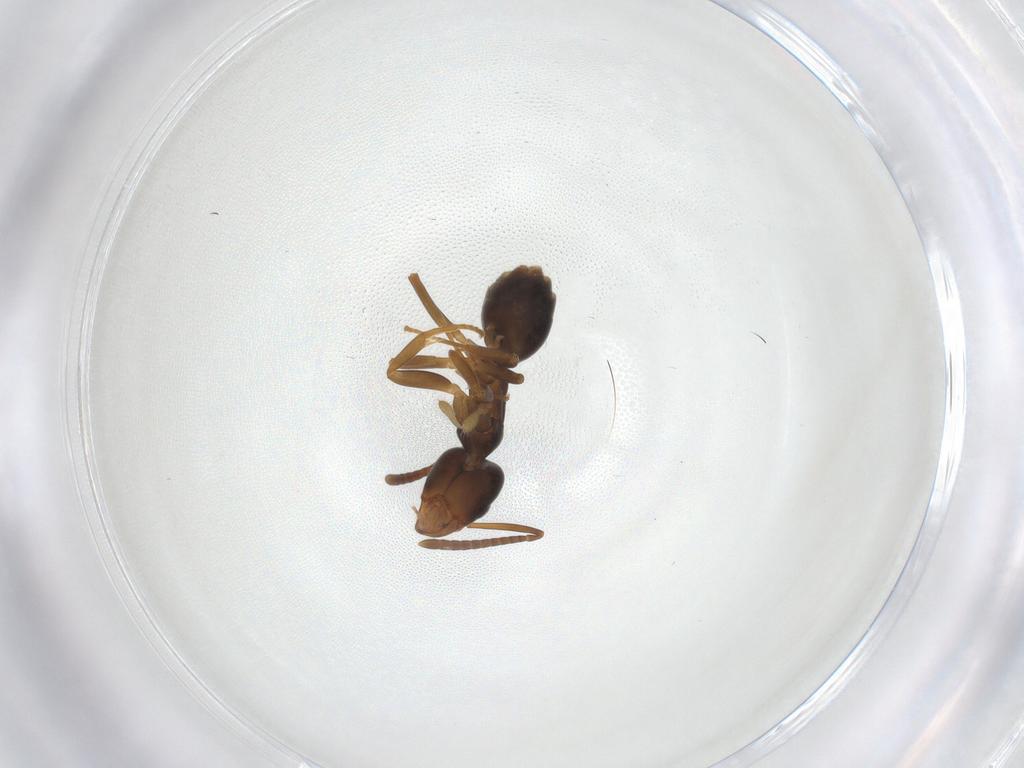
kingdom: Animalia
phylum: Arthropoda
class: Insecta
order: Hymenoptera
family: Formicidae
